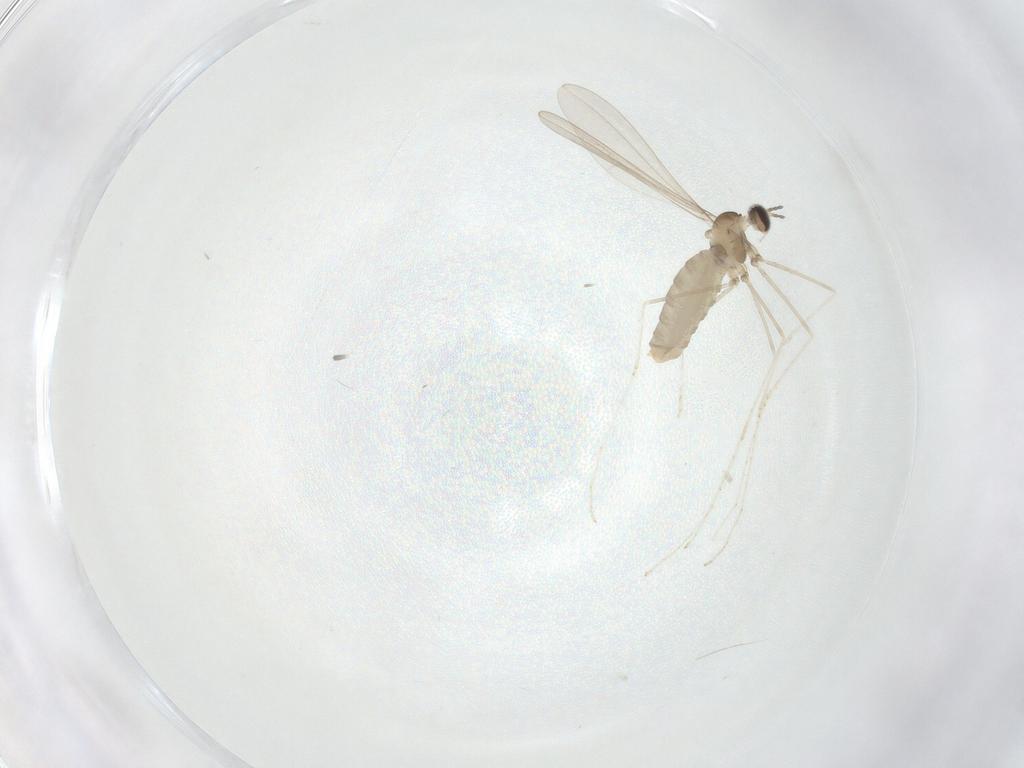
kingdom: Animalia
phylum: Arthropoda
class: Insecta
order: Diptera
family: Cecidomyiidae
